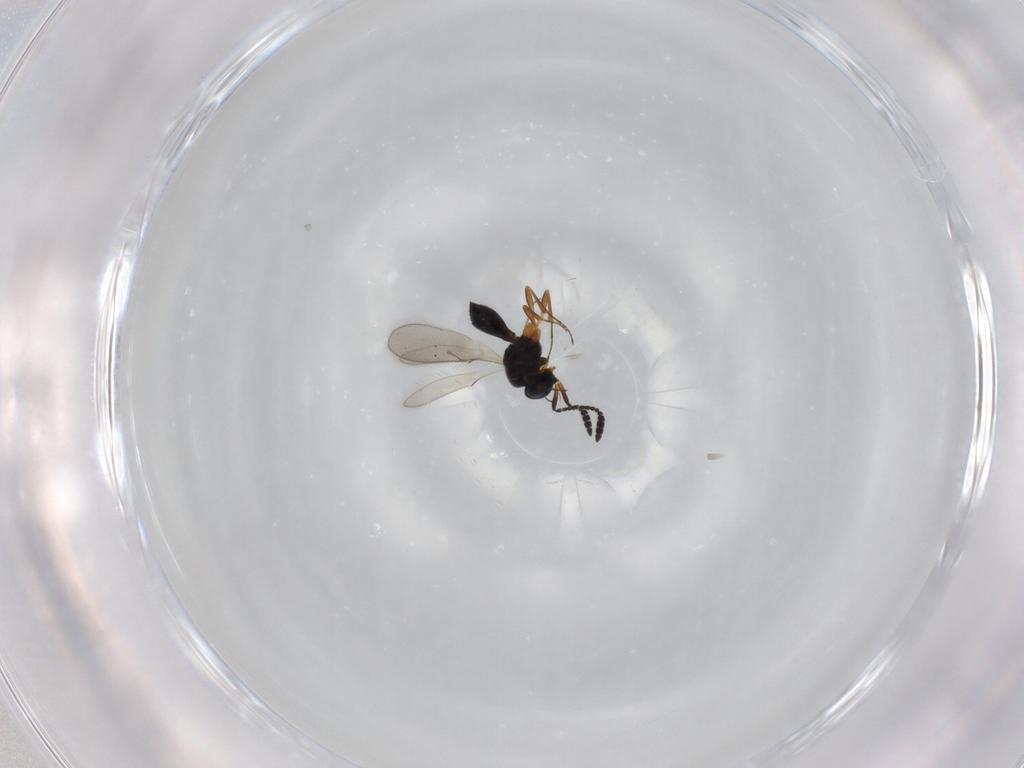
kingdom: Animalia
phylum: Arthropoda
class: Insecta
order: Hymenoptera
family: Scelionidae
